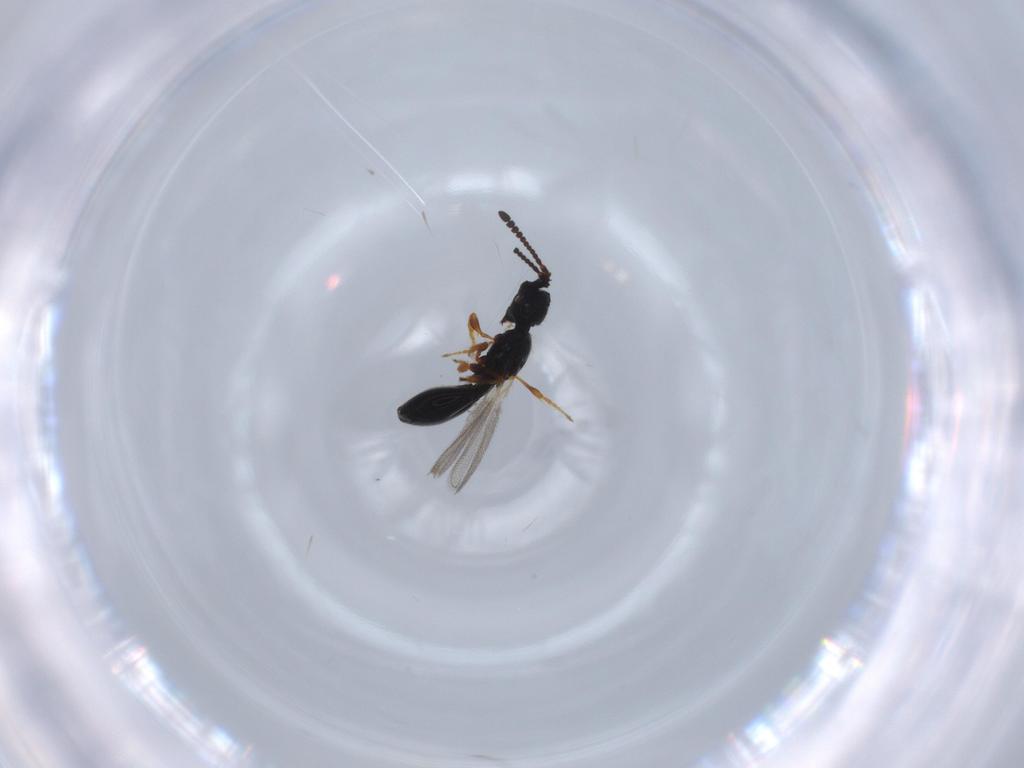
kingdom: Animalia
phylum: Arthropoda
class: Insecta
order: Hymenoptera
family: Diapriidae
